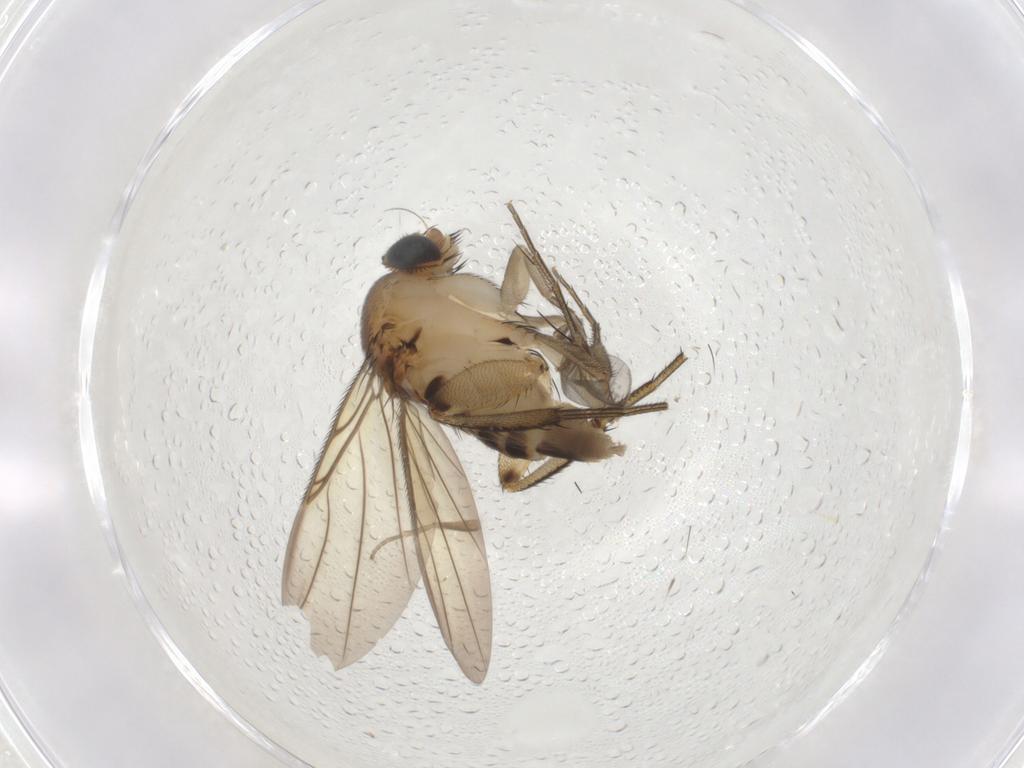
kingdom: Animalia
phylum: Arthropoda
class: Insecta
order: Diptera
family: Phoridae
